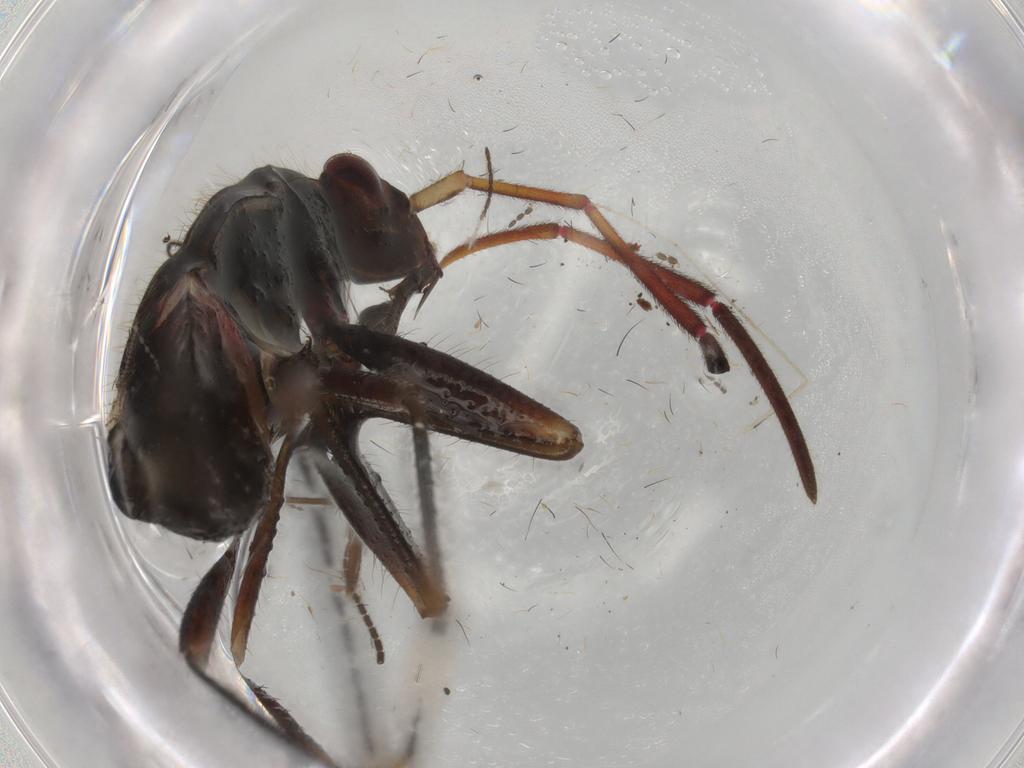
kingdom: Animalia
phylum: Arthropoda
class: Insecta
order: Hemiptera
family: Rhyparochromidae
